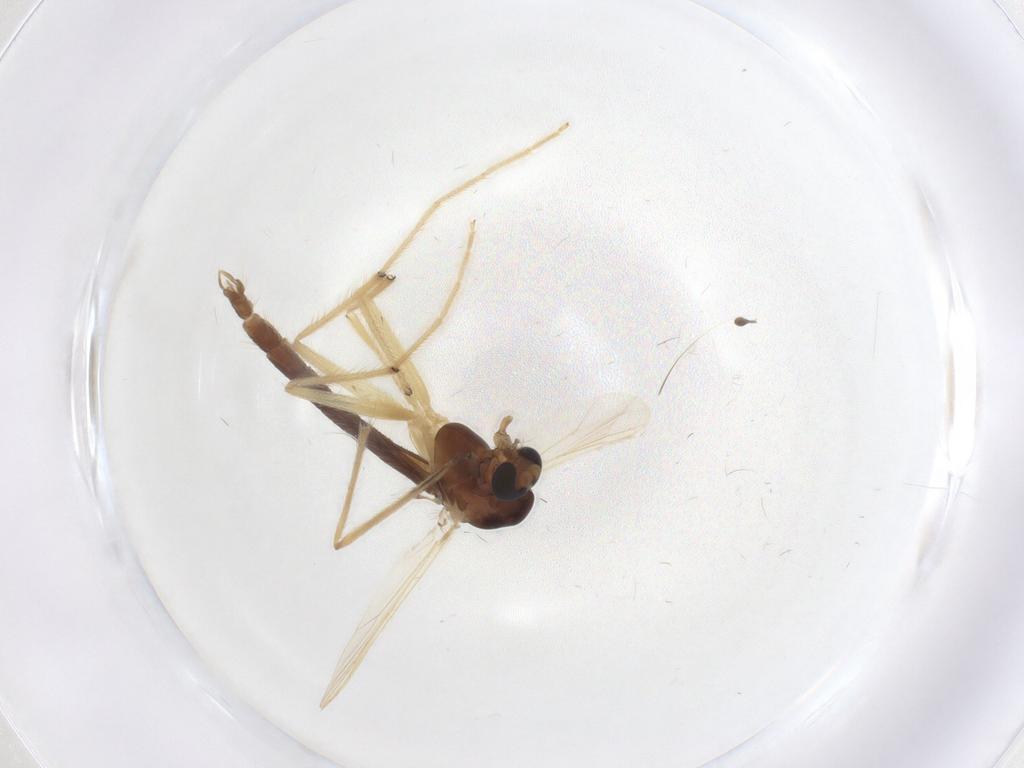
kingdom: Animalia
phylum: Arthropoda
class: Insecta
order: Diptera
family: Chironomidae
